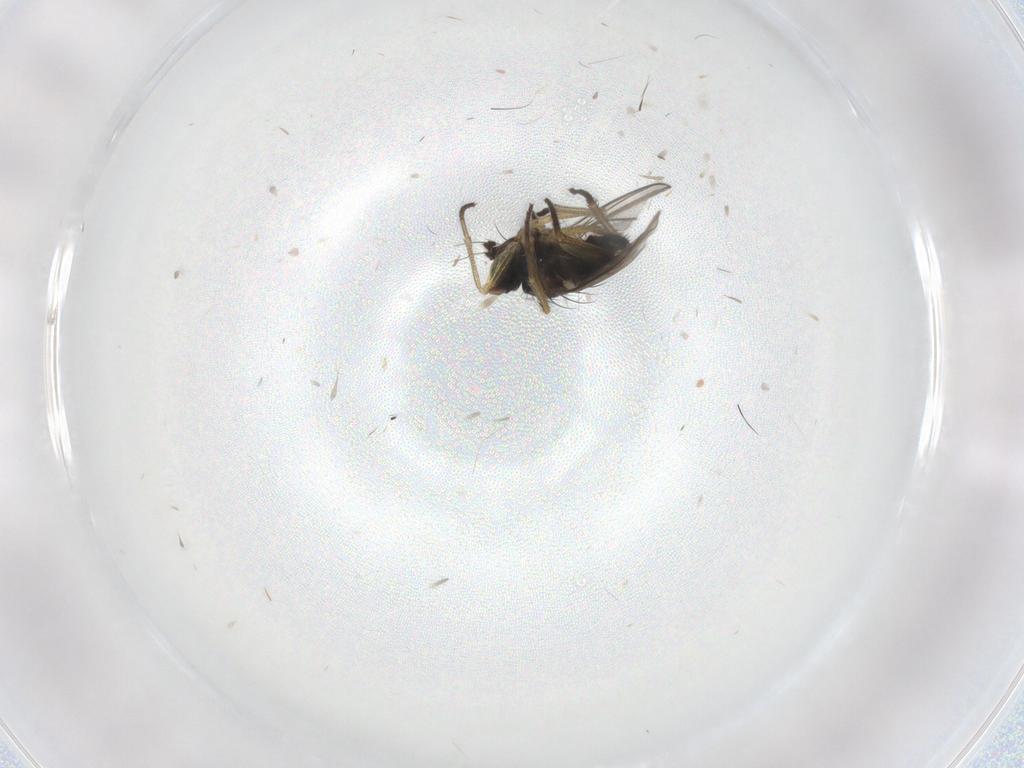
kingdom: Animalia
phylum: Arthropoda
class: Insecta
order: Diptera
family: Dolichopodidae
